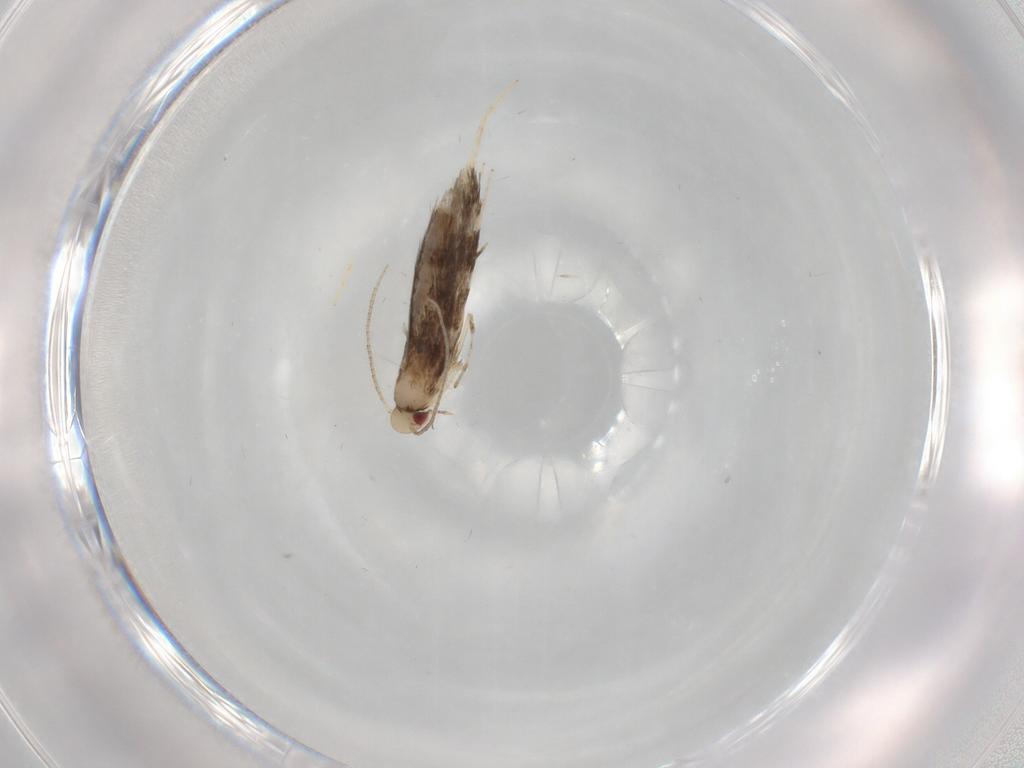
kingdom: Animalia
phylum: Arthropoda
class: Insecta
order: Lepidoptera
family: Gracillariidae
